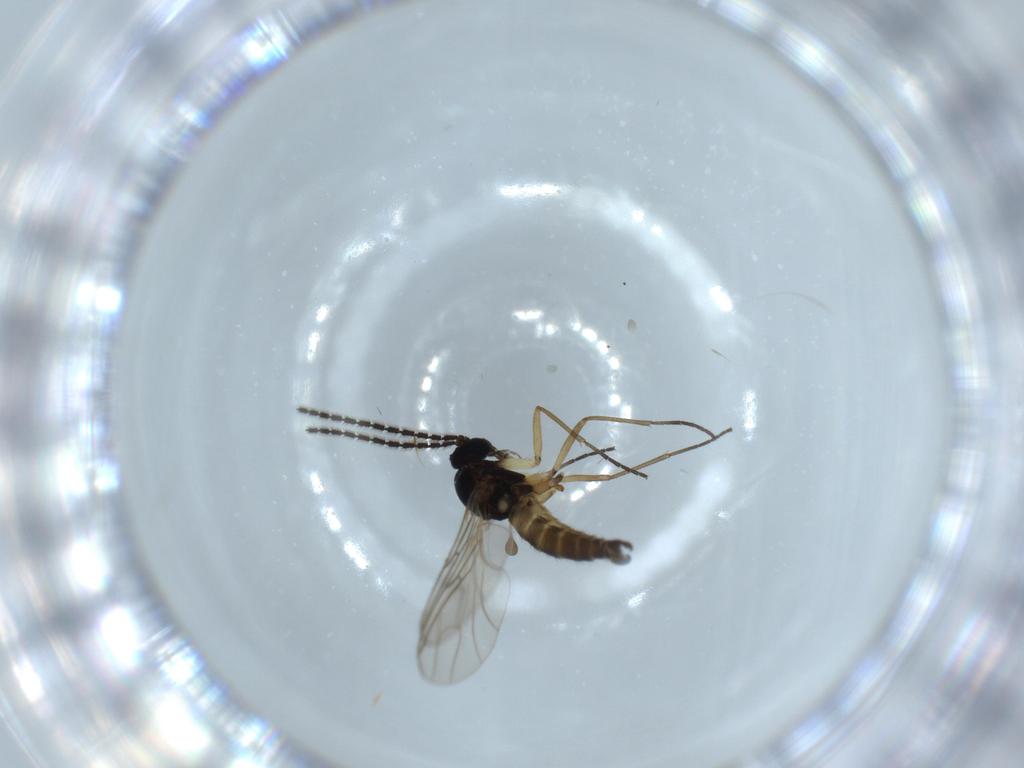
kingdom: Animalia
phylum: Arthropoda
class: Insecta
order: Diptera
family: Sciaridae
